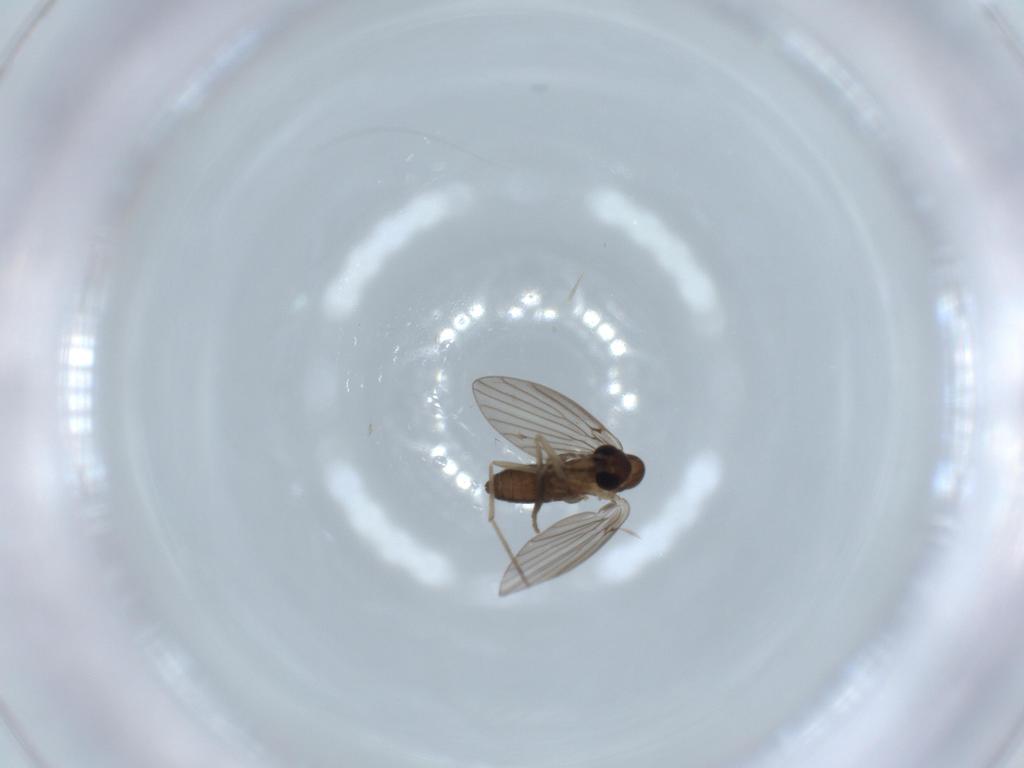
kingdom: Animalia
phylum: Arthropoda
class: Insecta
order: Diptera
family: Psychodidae
